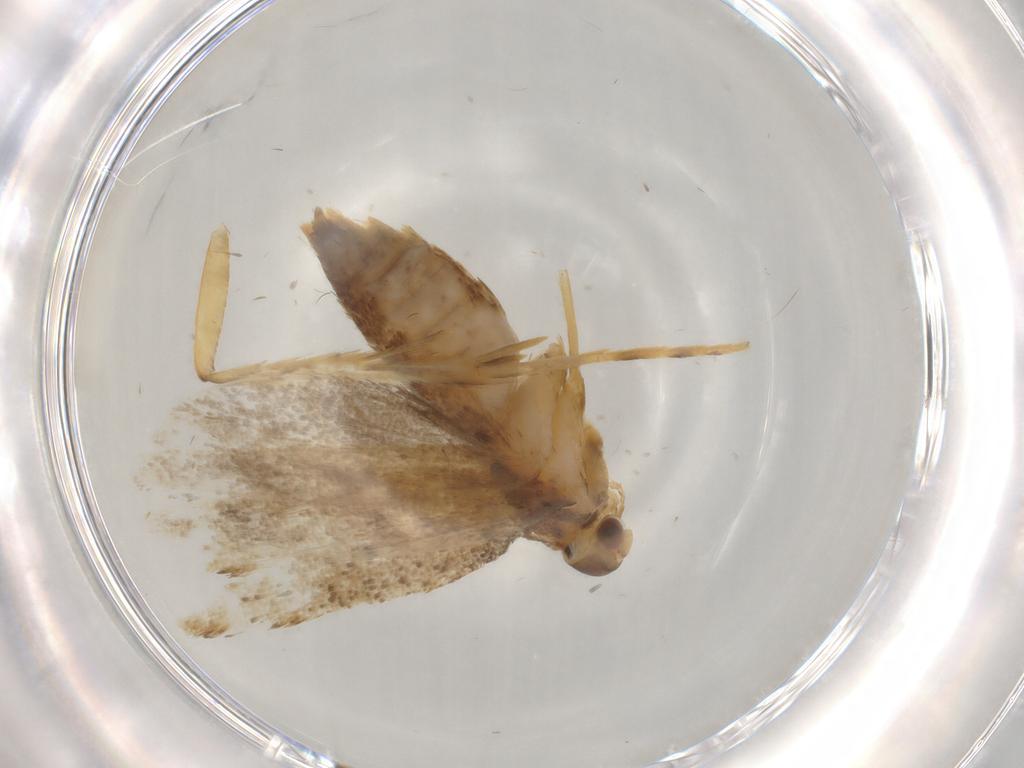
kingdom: Animalia
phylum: Arthropoda
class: Insecta
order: Lepidoptera
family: Lecithoceridae
